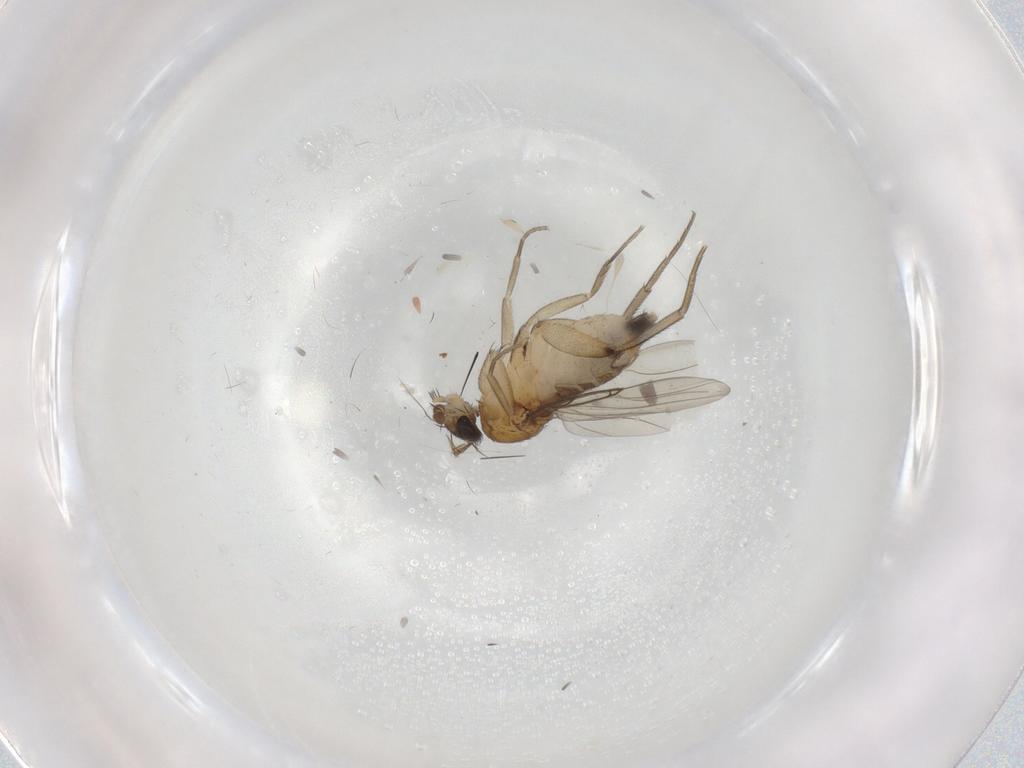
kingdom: Animalia
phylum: Arthropoda
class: Insecta
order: Diptera
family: Phoridae
